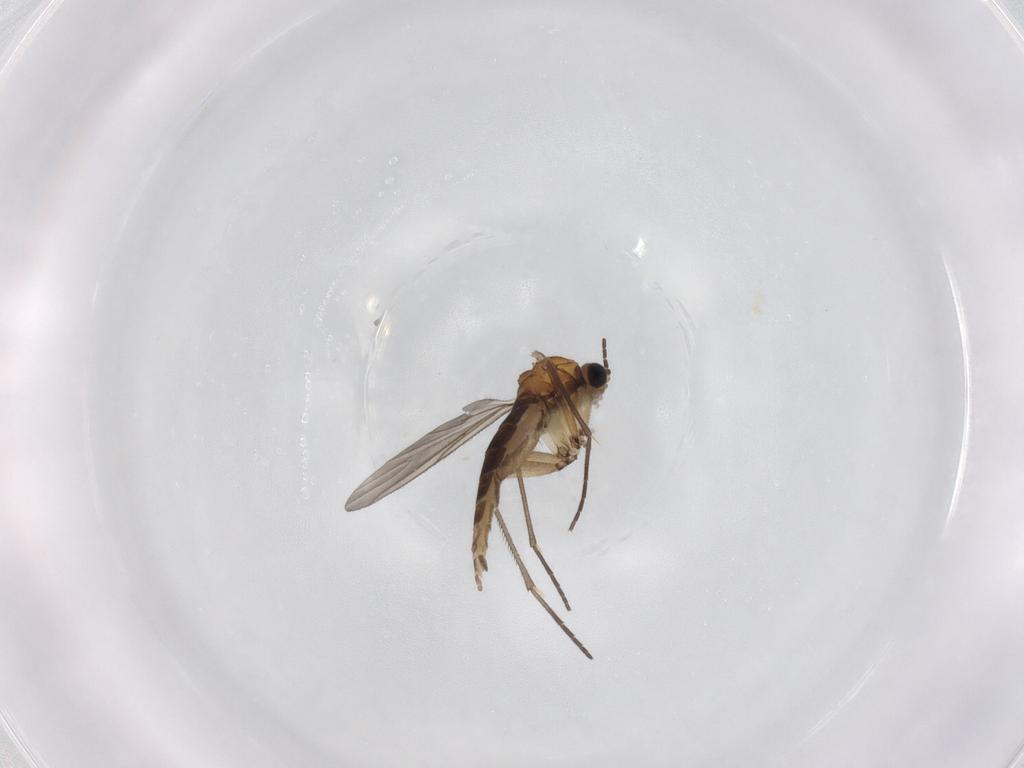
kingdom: Animalia
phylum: Arthropoda
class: Insecta
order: Diptera
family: Sciaridae
